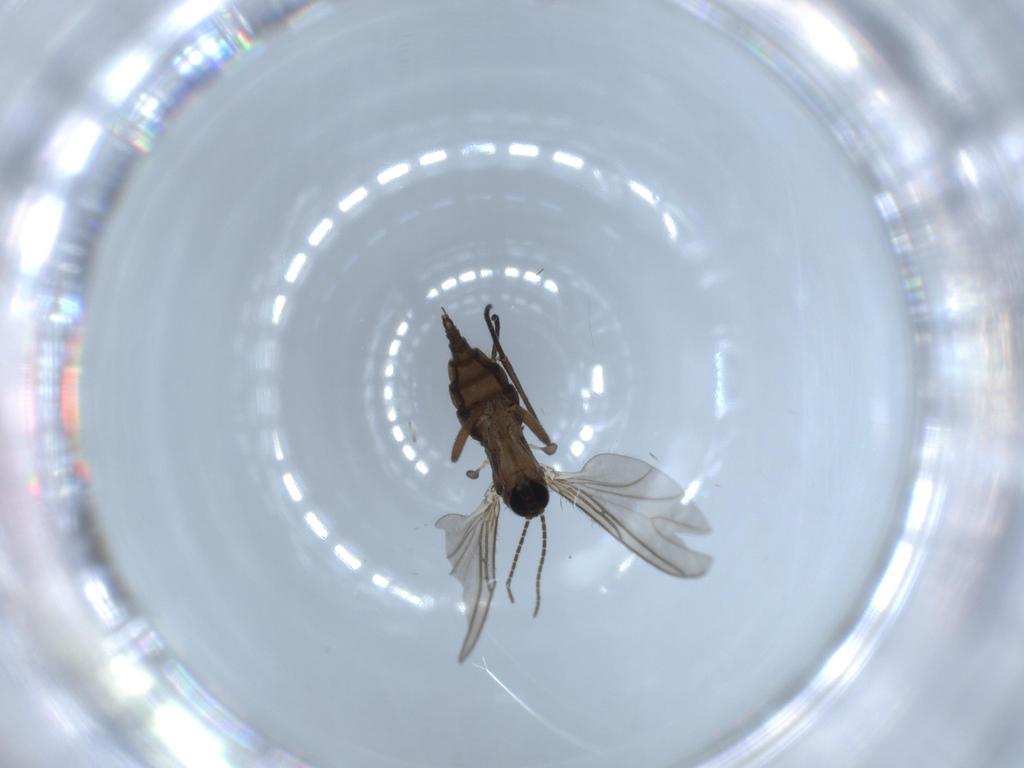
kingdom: Animalia
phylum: Arthropoda
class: Insecta
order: Diptera
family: Sciaridae
